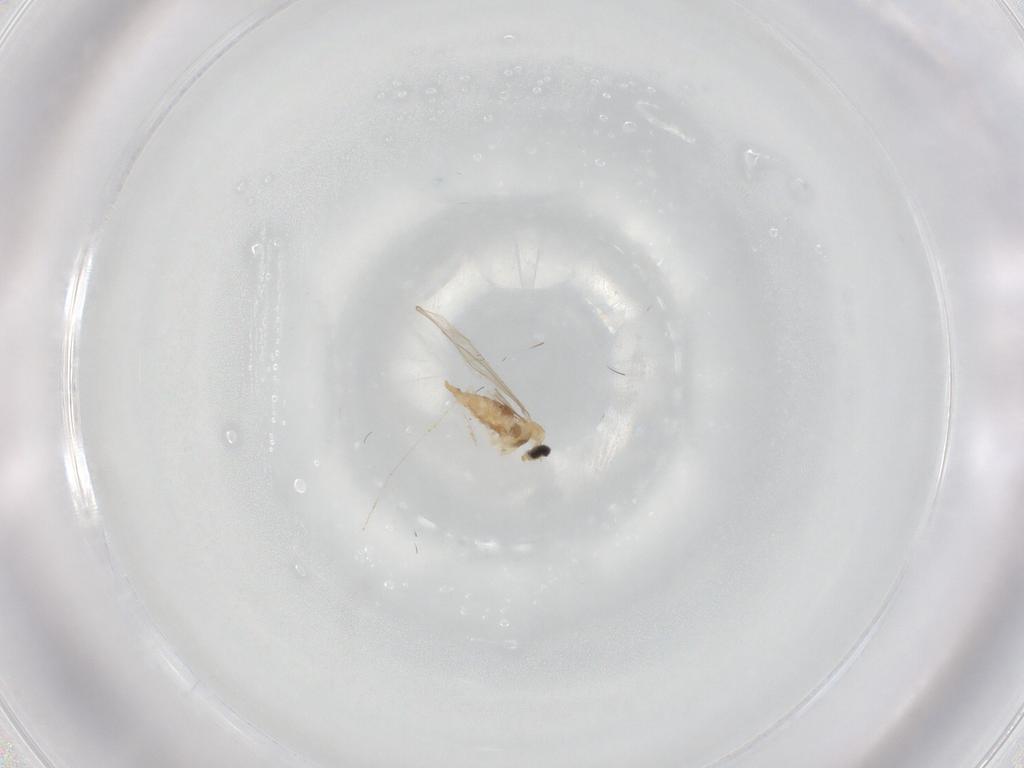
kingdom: Animalia
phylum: Arthropoda
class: Insecta
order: Diptera
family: Cecidomyiidae
